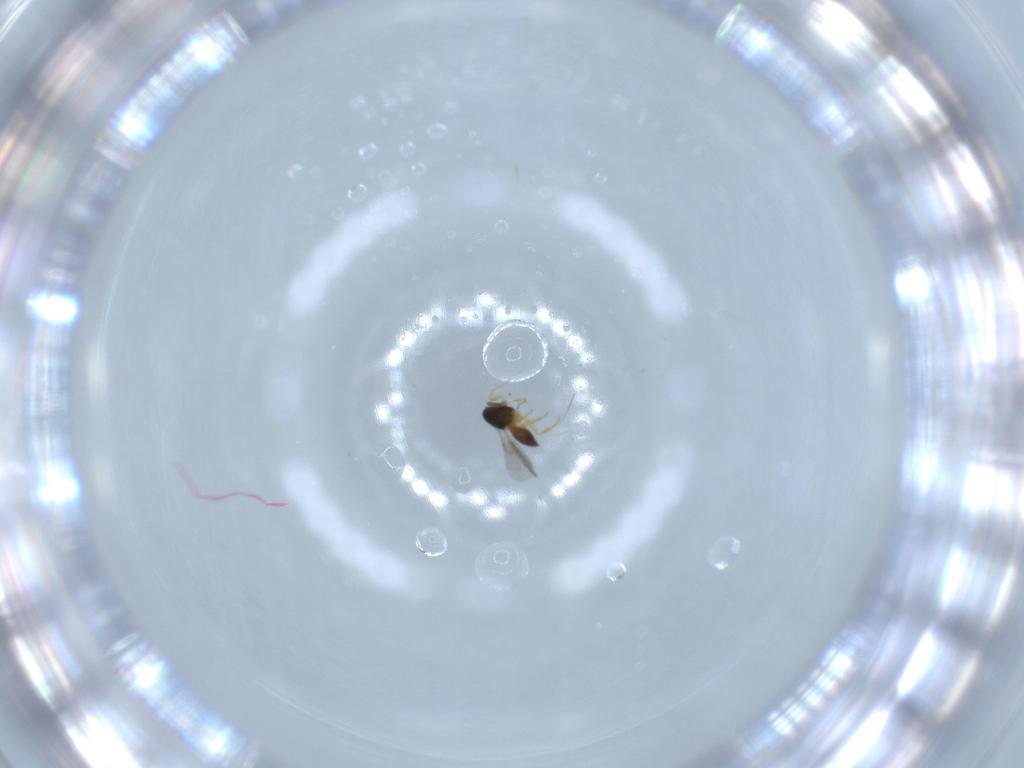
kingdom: Animalia
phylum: Arthropoda
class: Insecta
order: Hymenoptera
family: Scelionidae
